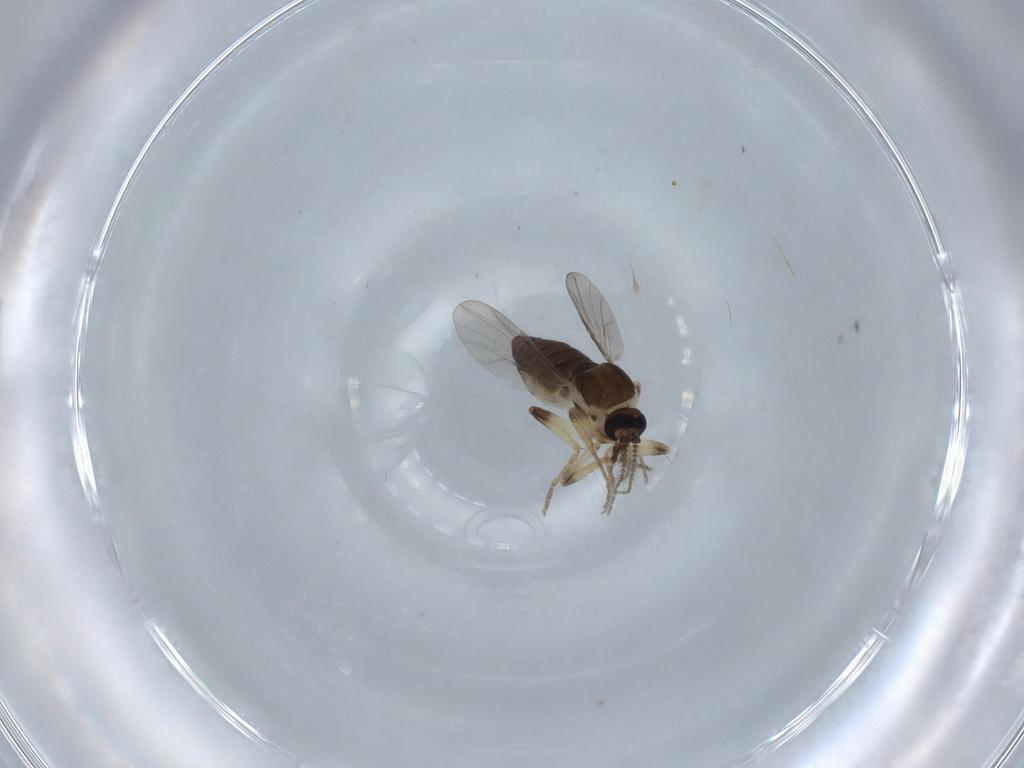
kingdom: Animalia
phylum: Arthropoda
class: Insecta
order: Diptera
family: Ceratopogonidae
